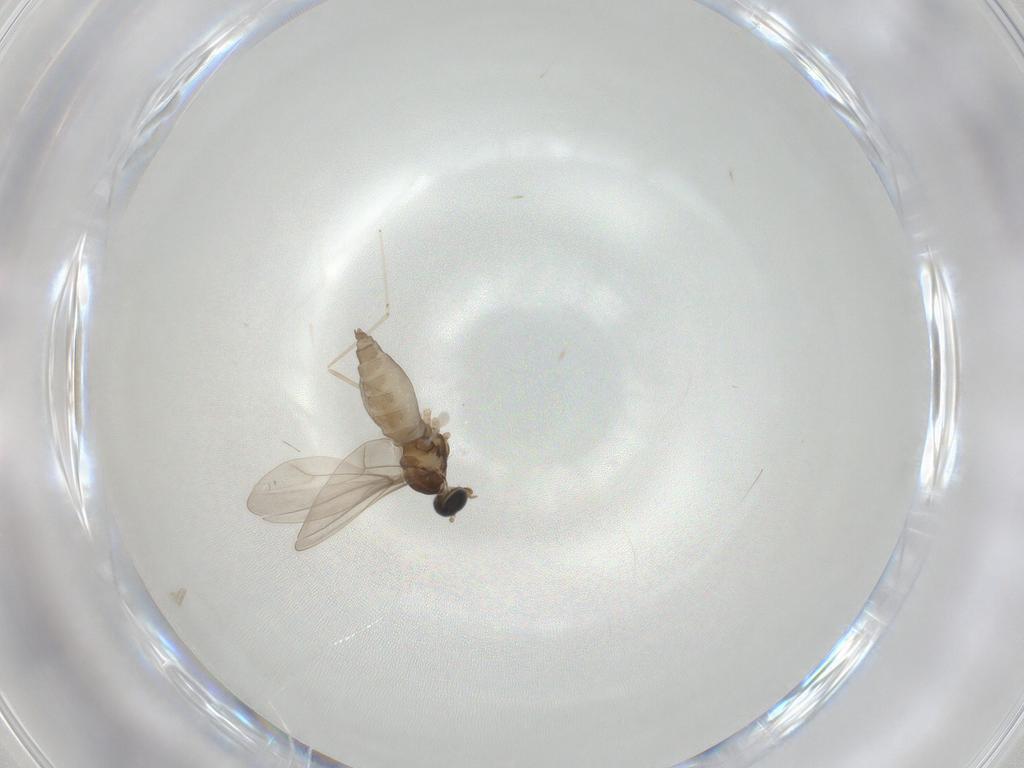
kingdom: Animalia
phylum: Arthropoda
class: Insecta
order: Diptera
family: Cecidomyiidae
